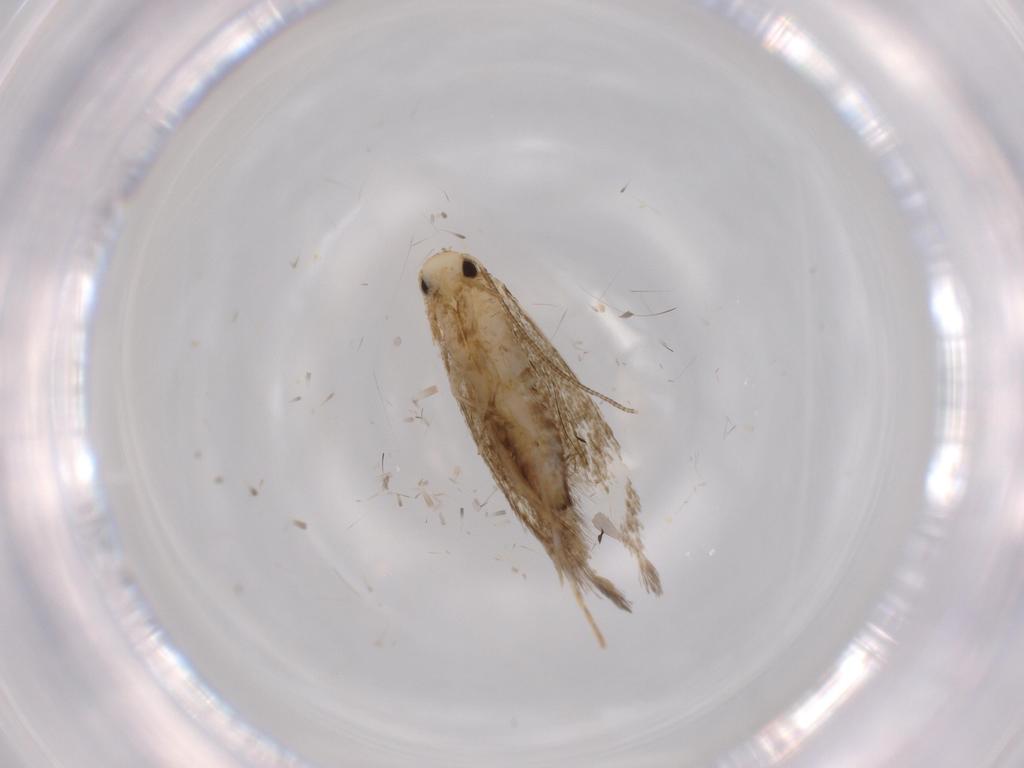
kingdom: Animalia
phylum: Arthropoda
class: Insecta
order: Lepidoptera
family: Tineidae
